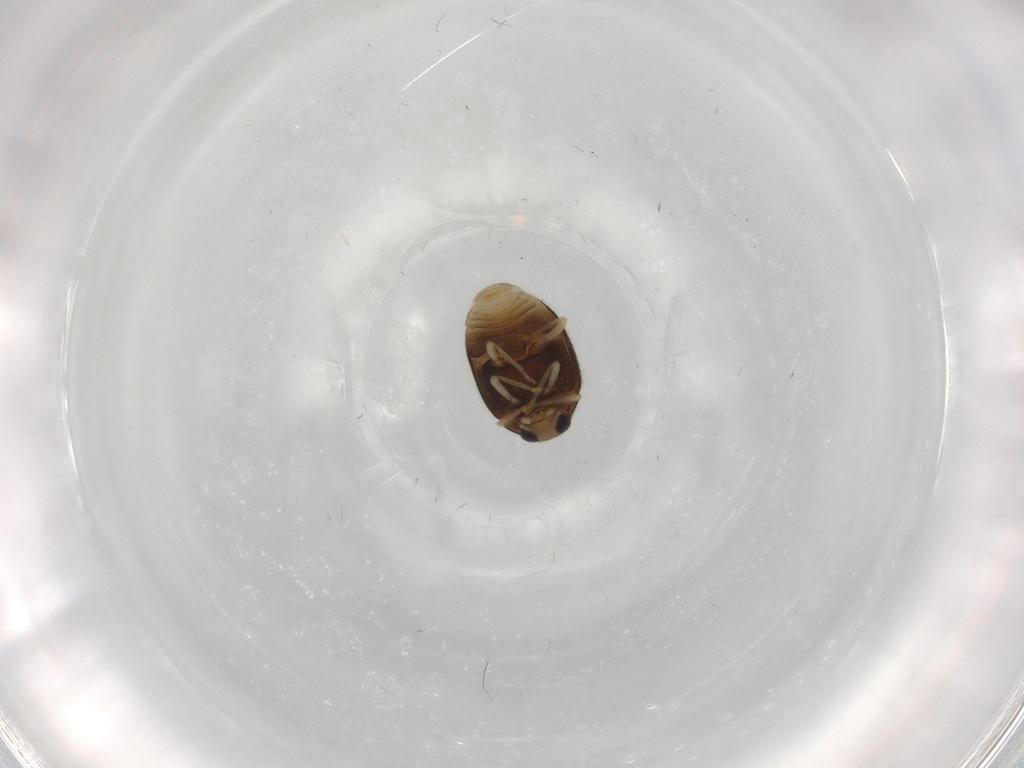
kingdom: Animalia
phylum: Arthropoda
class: Insecta
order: Coleoptera
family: Coccinellidae
